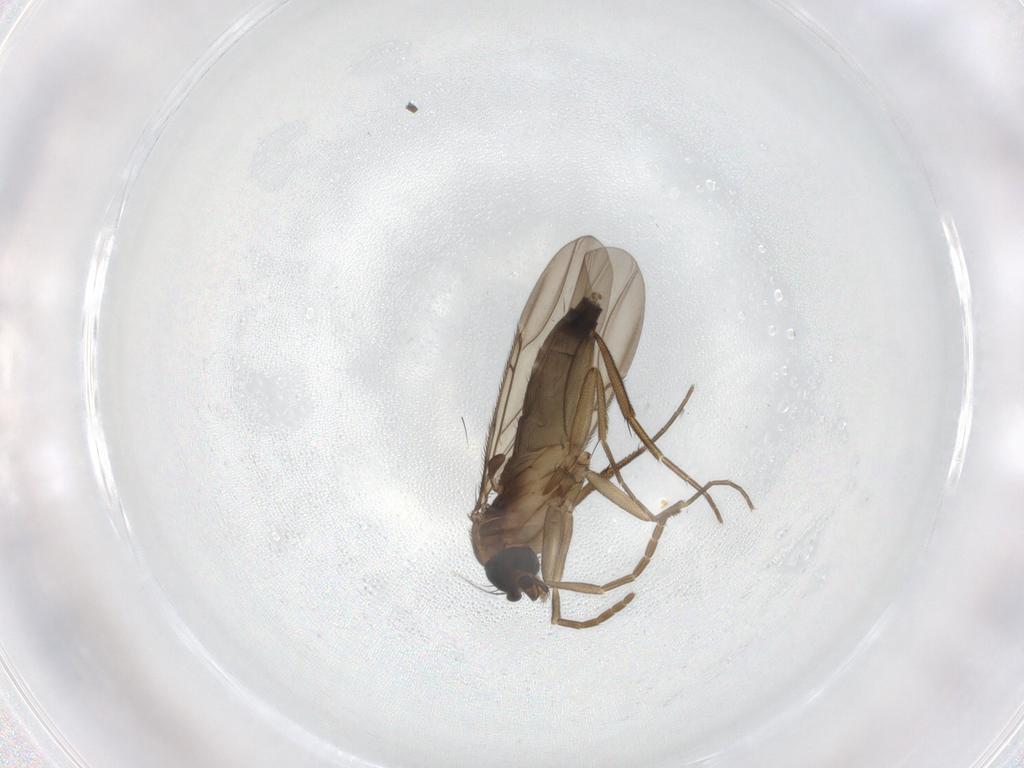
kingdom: Animalia
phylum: Arthropoda
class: Insecta
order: Diptera
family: Phoridae
